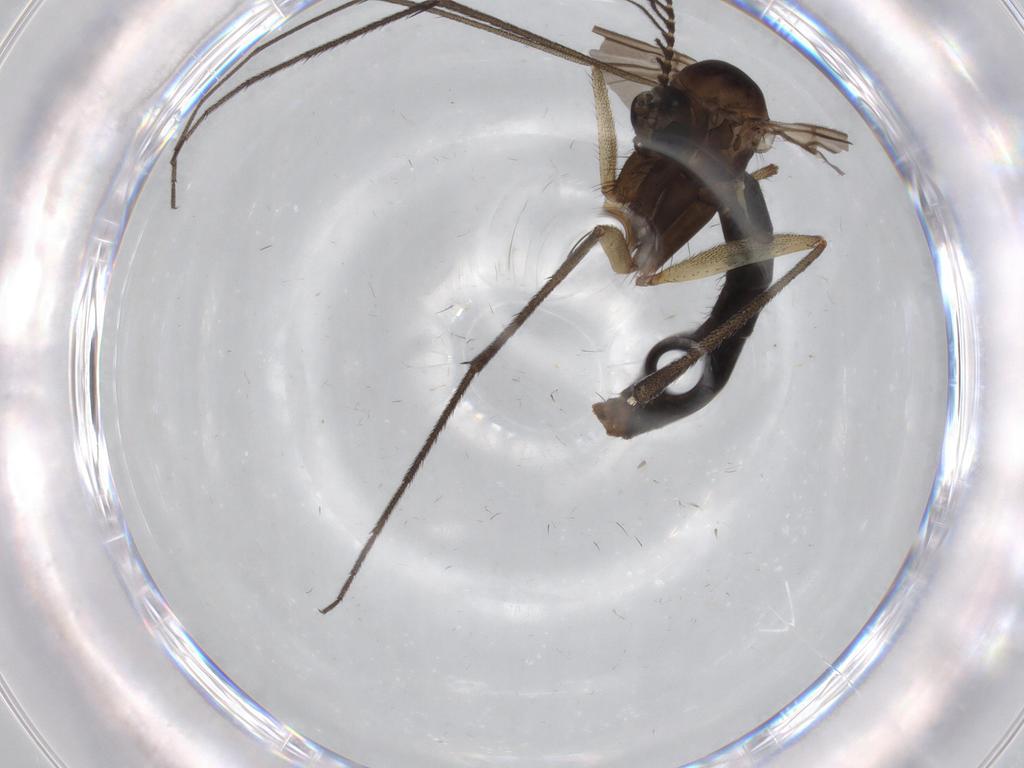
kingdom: Animalia
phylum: Arthropoda
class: Insecta
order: Diptera
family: Cecidomyiidae
